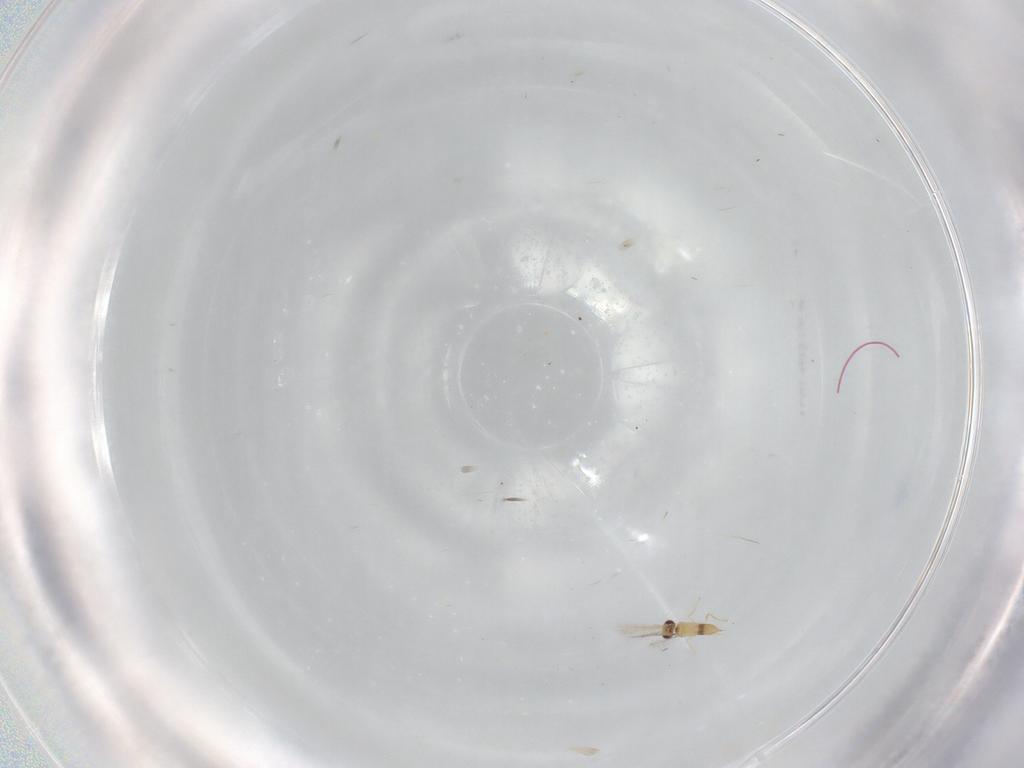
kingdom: Animalia
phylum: Arthropoda
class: Insecta
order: Hymenoptera
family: Mymaridae
